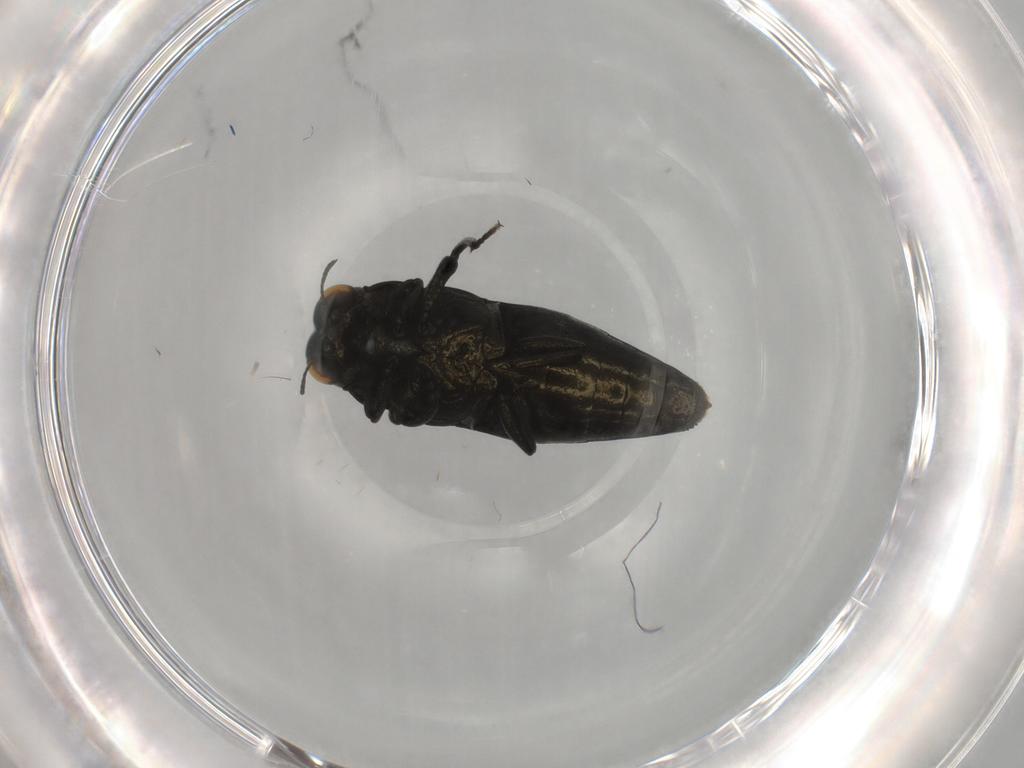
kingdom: Animalia
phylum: Arthropoda
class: Insecta
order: Coleoptera
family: Buprestidae
